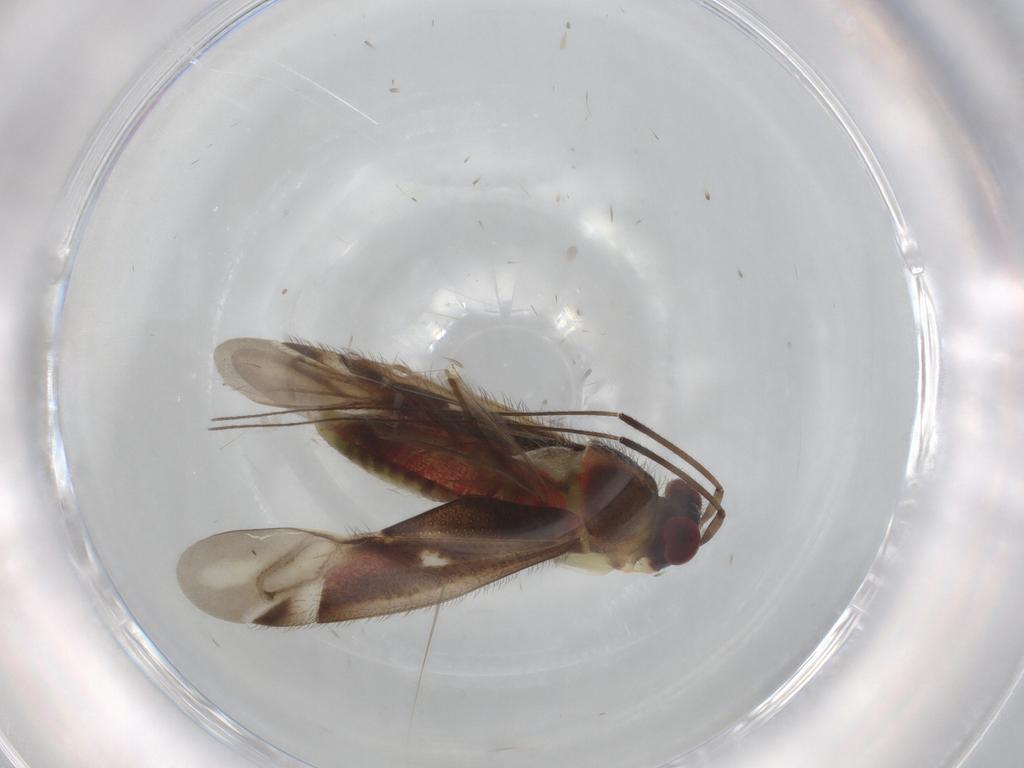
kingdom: Animalia
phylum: Arthropoda
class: Insecta
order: Hemiptera
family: Miridae
